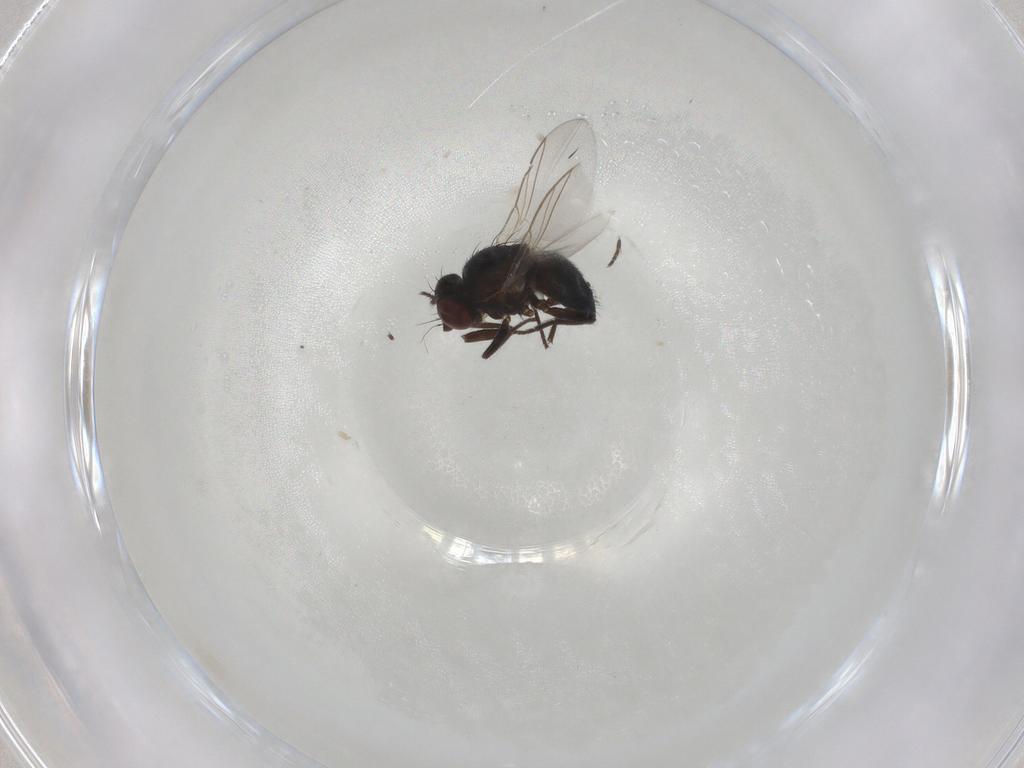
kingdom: Animalia
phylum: Arthropoda
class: Insecta
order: Diptera
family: Agromyzidae
